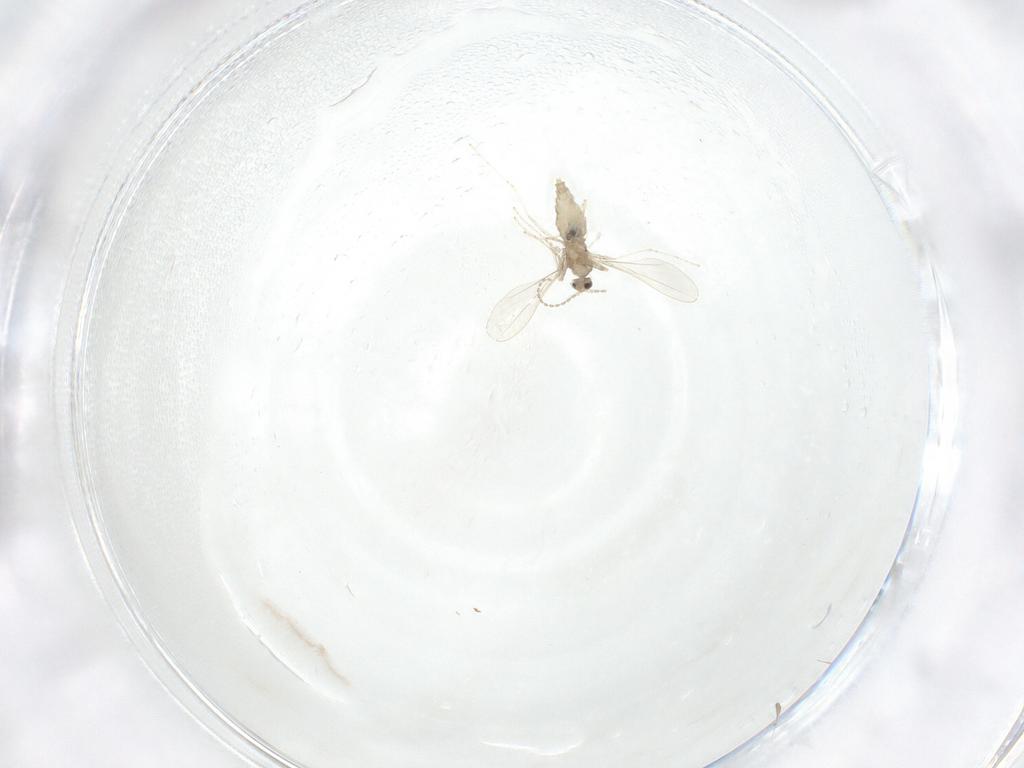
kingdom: Animalia
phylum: Arthropoda
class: Insecta
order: Diptera
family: Cecidomyiidae
